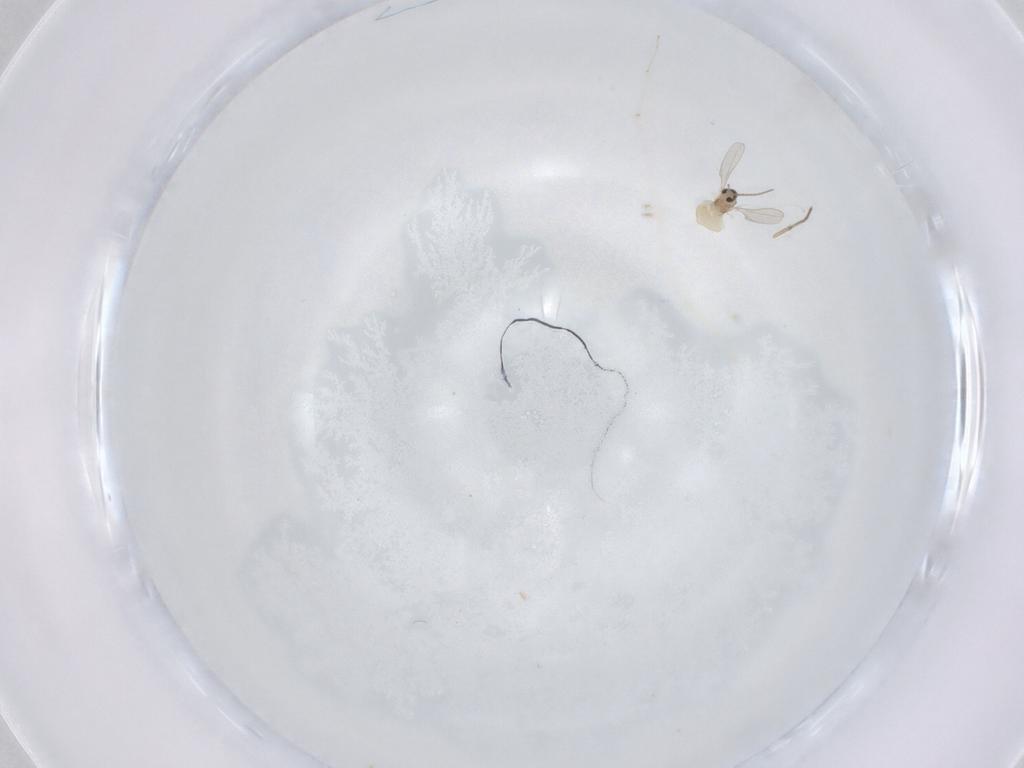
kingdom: Animalia
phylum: Arthropoda
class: Insecta
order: Diptera
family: Cecidomyiidae
